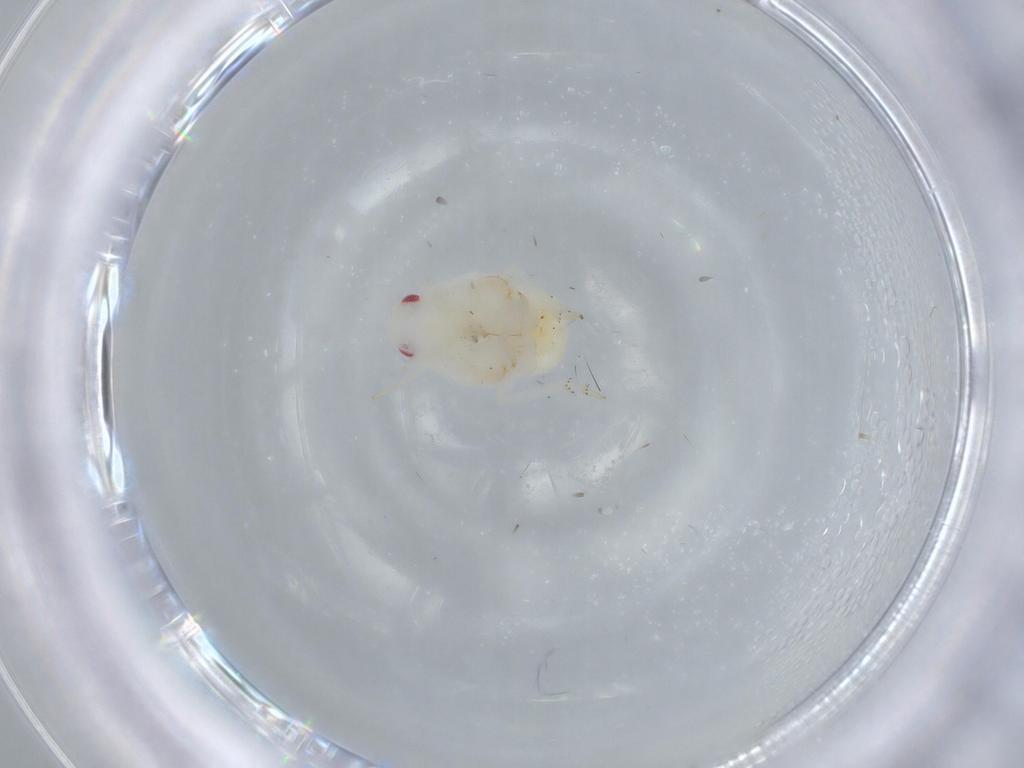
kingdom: Animalia
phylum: Arthropoda
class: Insecta
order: Hemiptera
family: Flatidae
